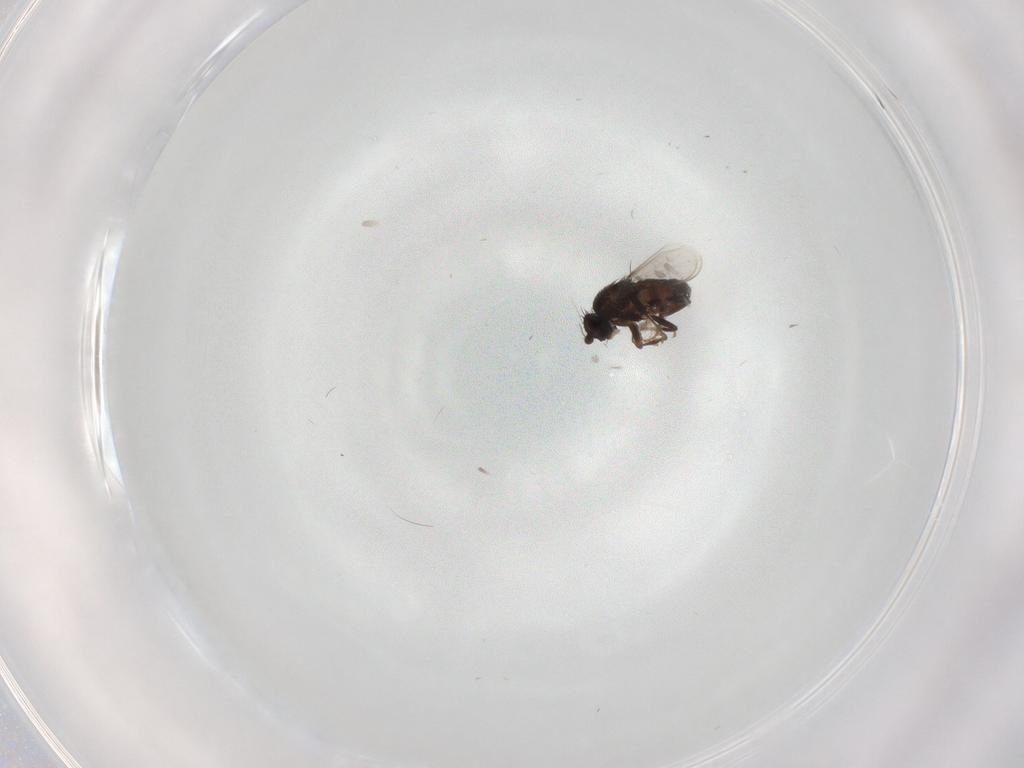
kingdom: Animalia
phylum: Arthropoda
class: Insecta
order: Diptera
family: Sphaeroceridae
